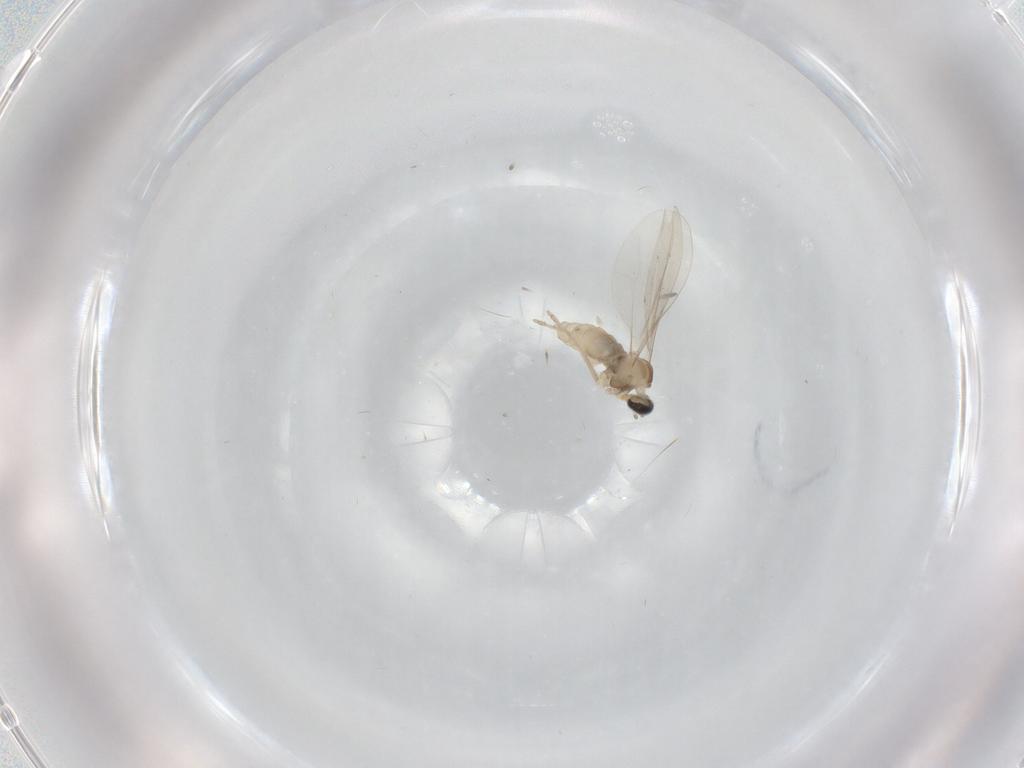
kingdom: Animalia
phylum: Arthropoda
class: Insecta
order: Diptera
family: Cecidomyiidae
